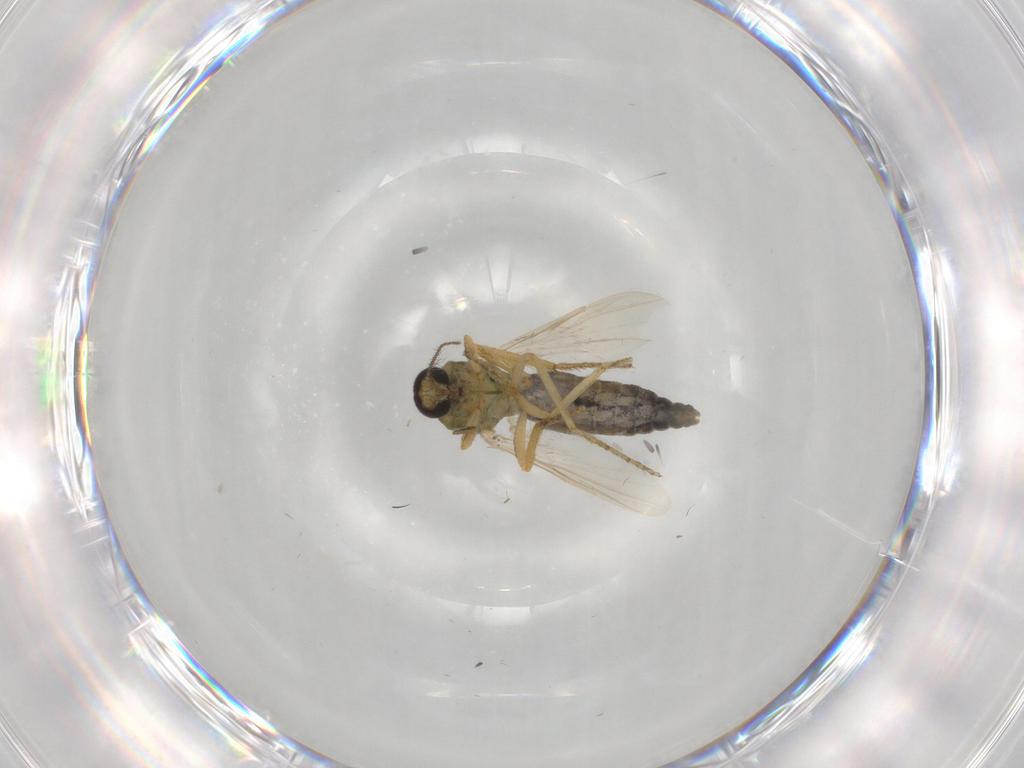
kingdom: Animalia
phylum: Arthropoda
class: Insecta
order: Diptera
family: Ceratopogonidae
